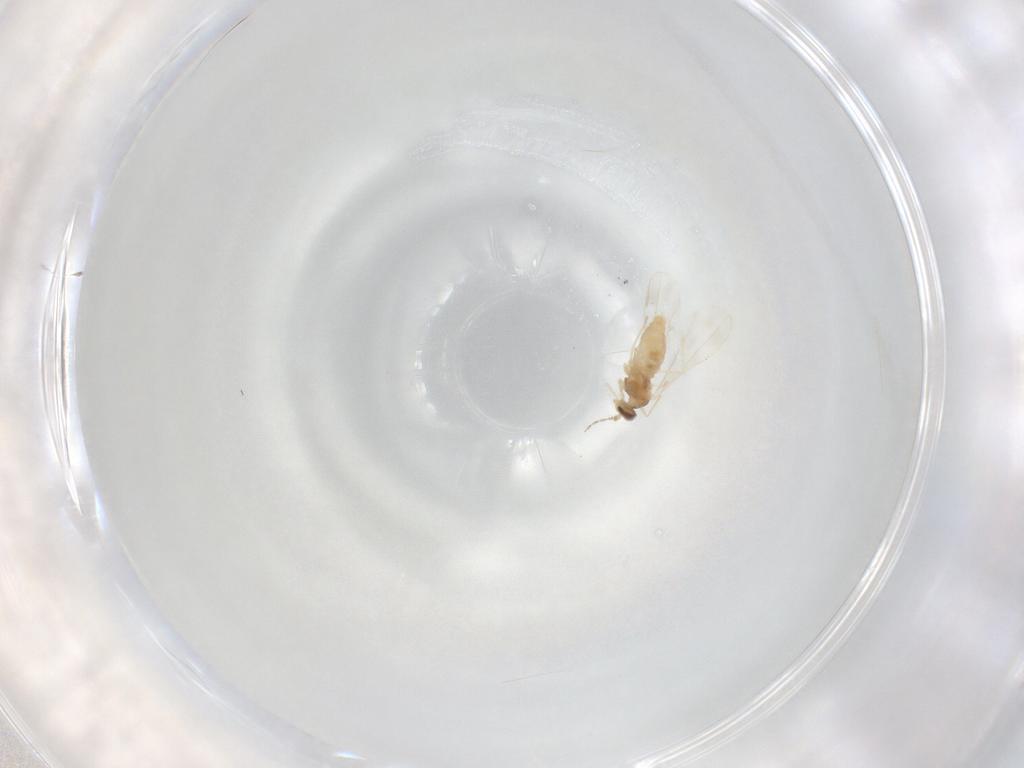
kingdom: Animalia
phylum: Arthropoda
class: Insecta
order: Diptera
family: Cecidomyiidae
